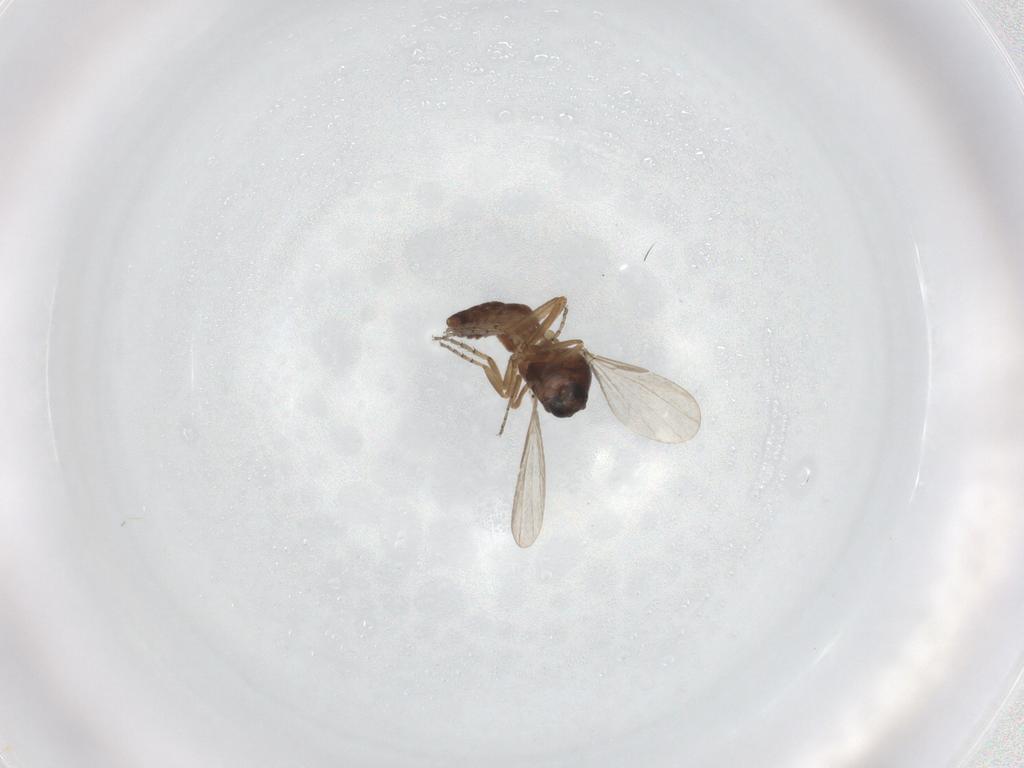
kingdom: Animalia
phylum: Arthropoda
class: Insecta
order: Diptera
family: Ceratopogonidae
